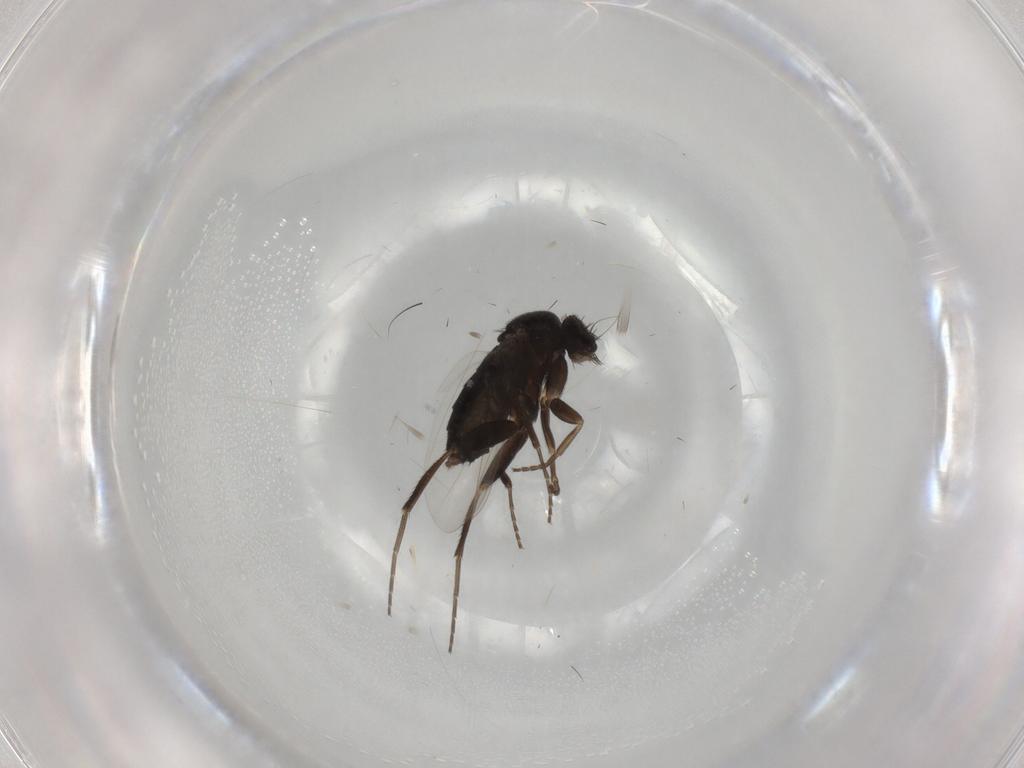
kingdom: Animalia
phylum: Arthropoda
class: Insecta
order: Diptera
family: Phoridae
